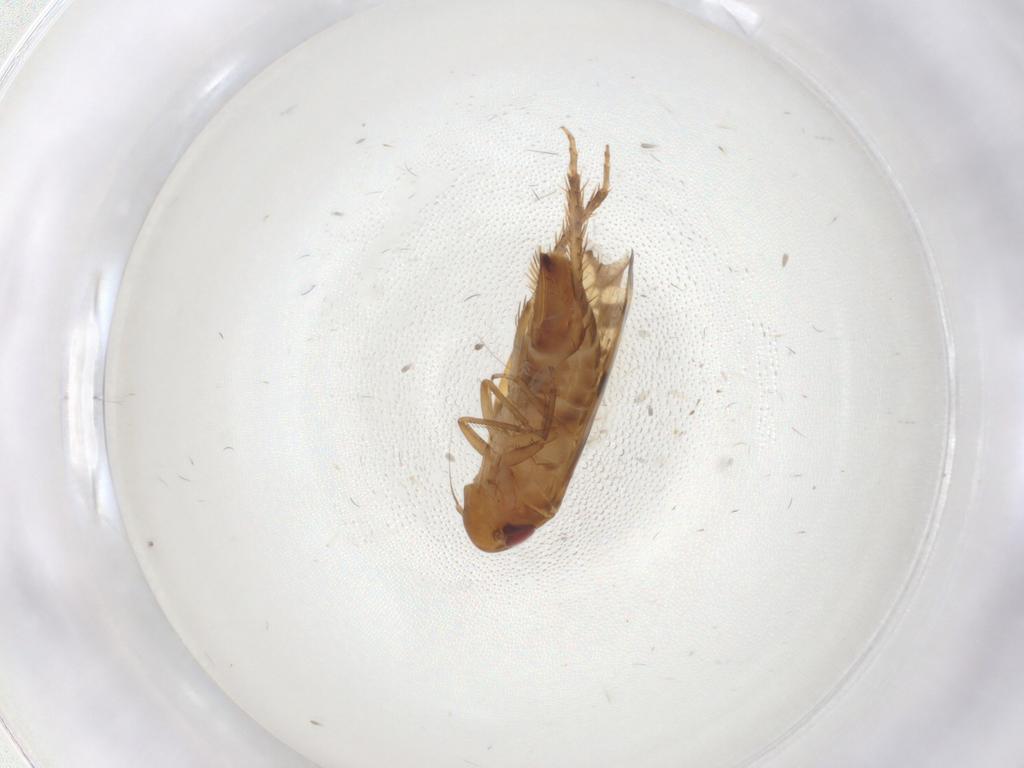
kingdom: Animalia
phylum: Arthropoda
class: Insecta
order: Hemiptera
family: Cicadellidae
